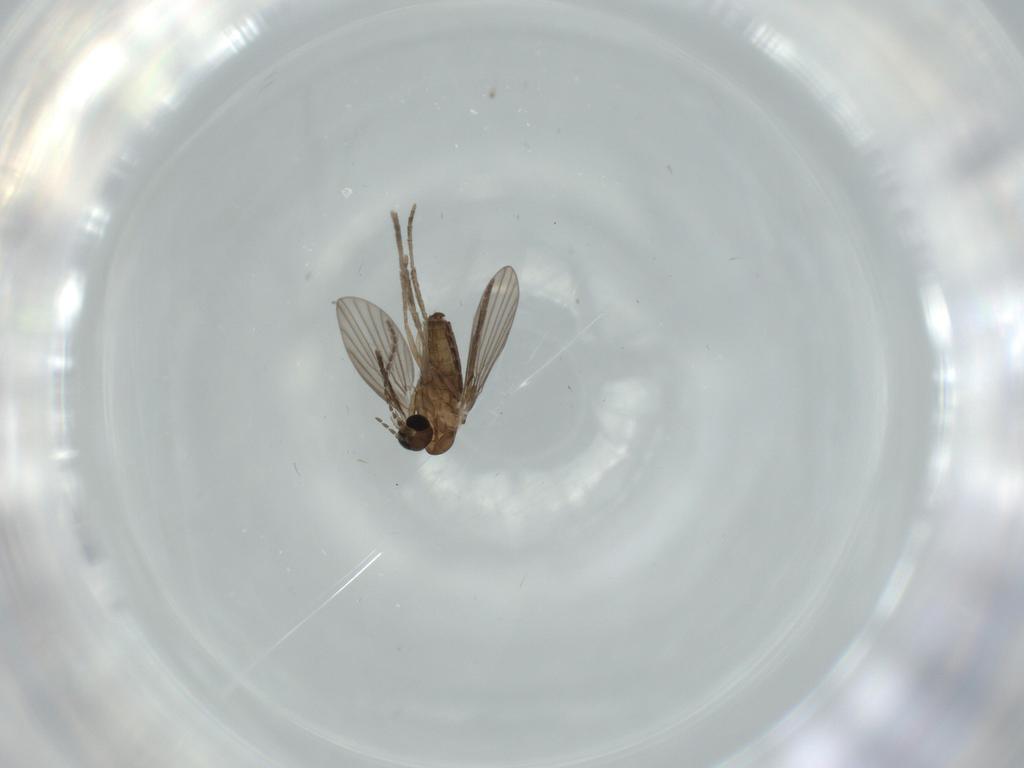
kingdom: Animalia
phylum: Arthropoda
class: Insecta
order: Diptera
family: Psychodidae
